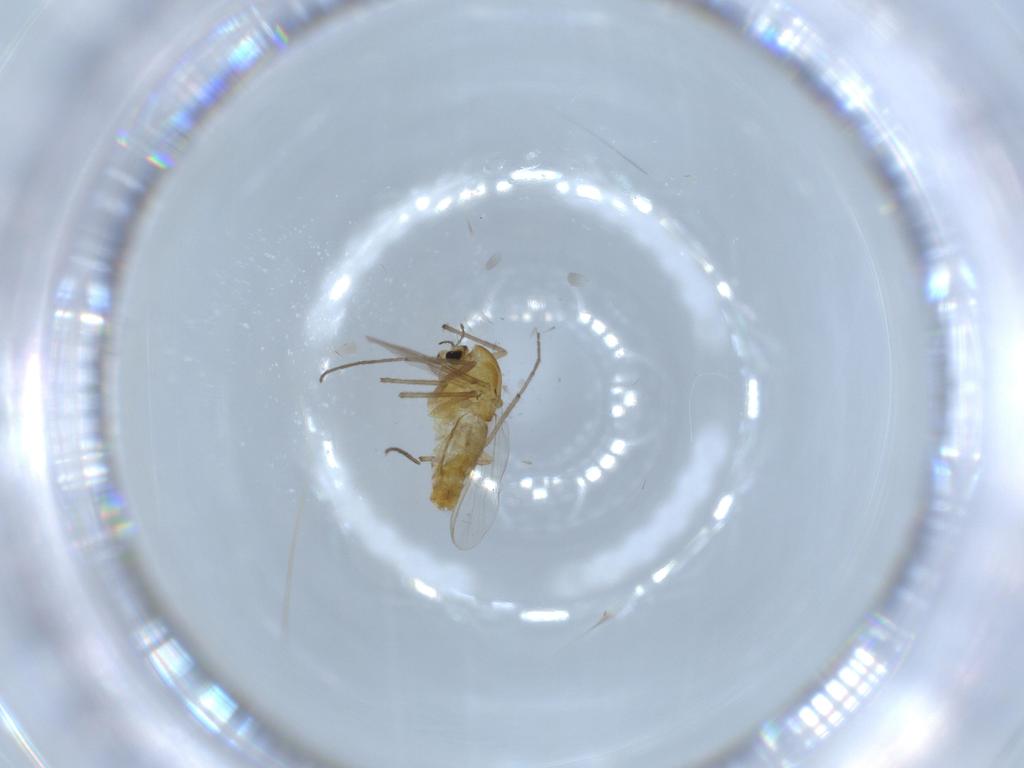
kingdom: Animalia
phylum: Arthropoda
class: Insecta
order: Diptera
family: Chironomidae
